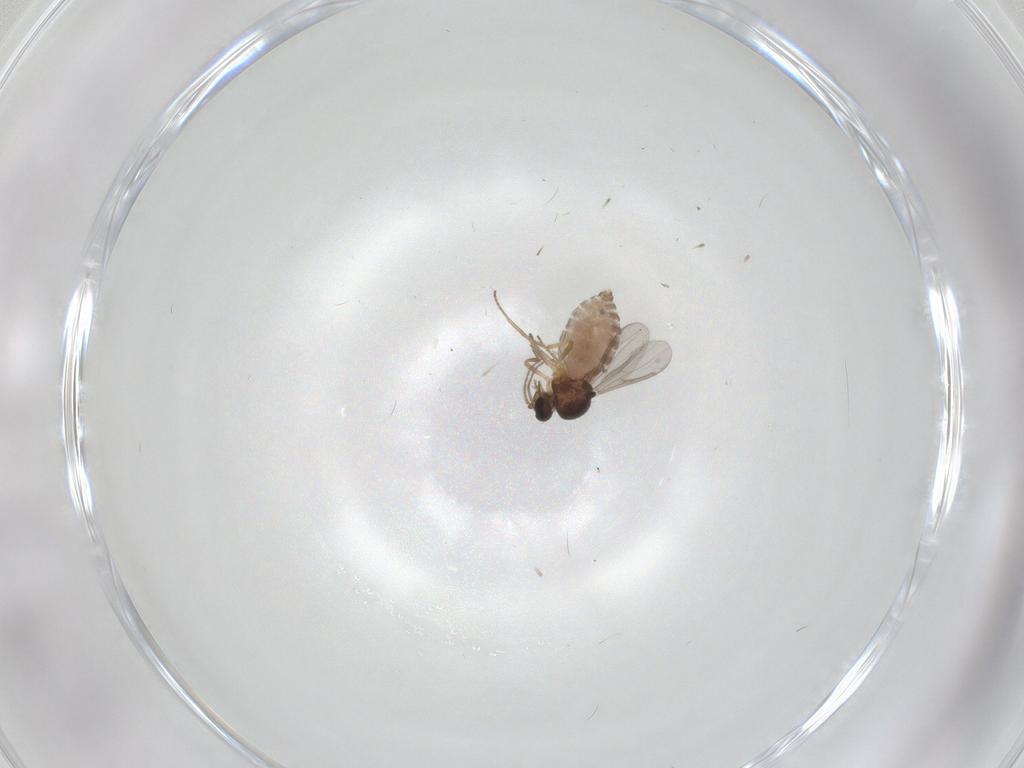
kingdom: Animalia
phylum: Arthropoda
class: Insecta
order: Diptera
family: Ceratopogonidae
